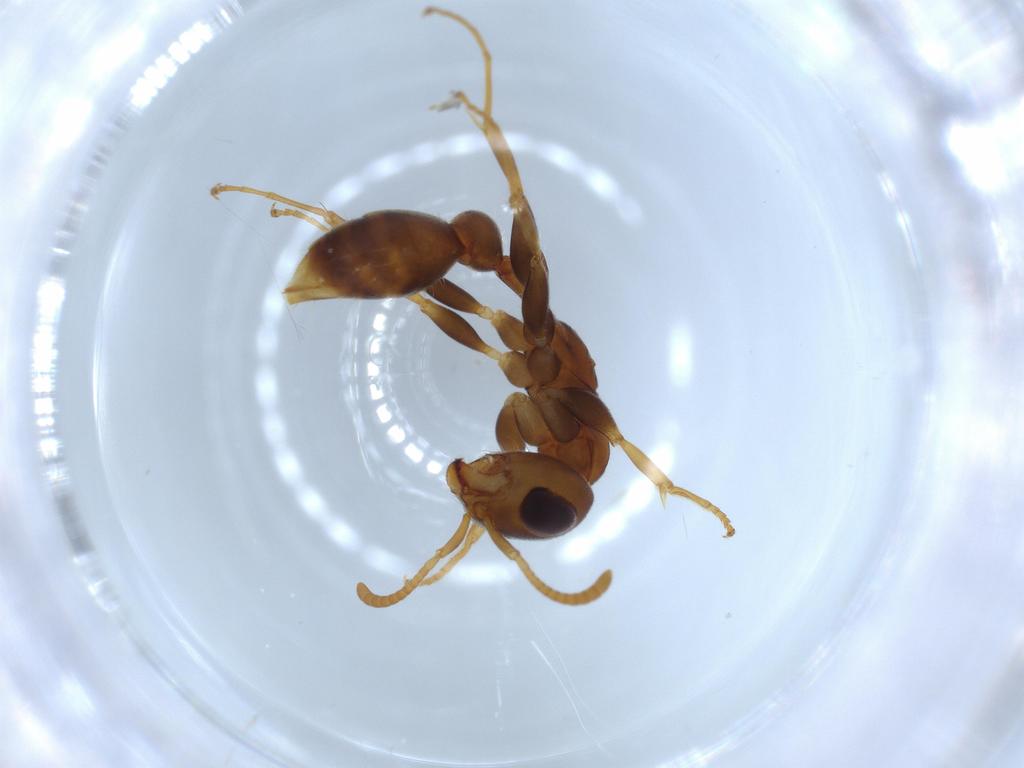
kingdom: Animalia
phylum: Arthropoda
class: Insecta
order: Hymenoptera
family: Formicidae
